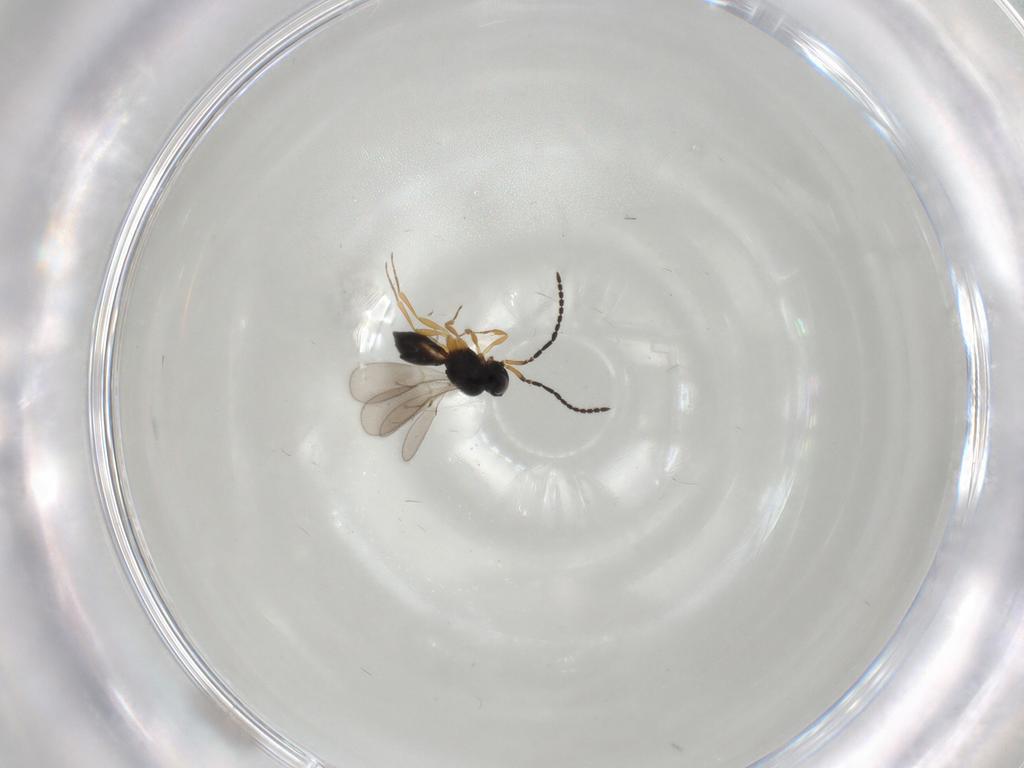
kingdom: Animalia
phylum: Arthropoda
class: Insecta
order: Hymenoptera
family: Scelionidae
